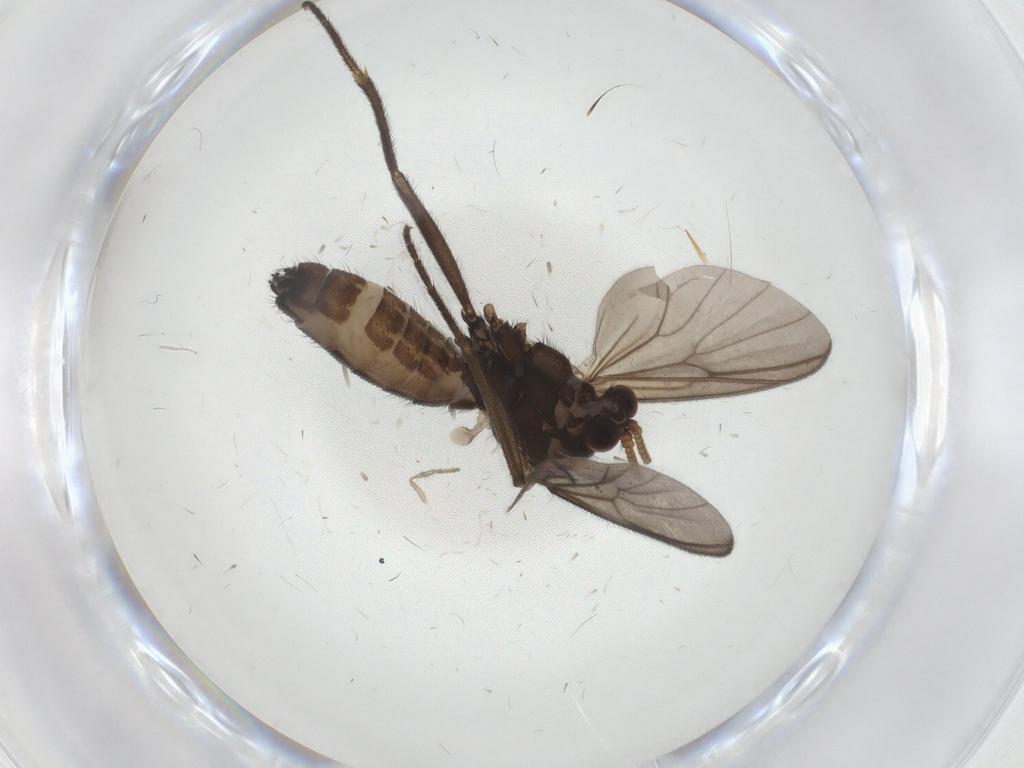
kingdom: Animalia
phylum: Arthropoda
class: Insecta
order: Diptera
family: Mycetophilidae
